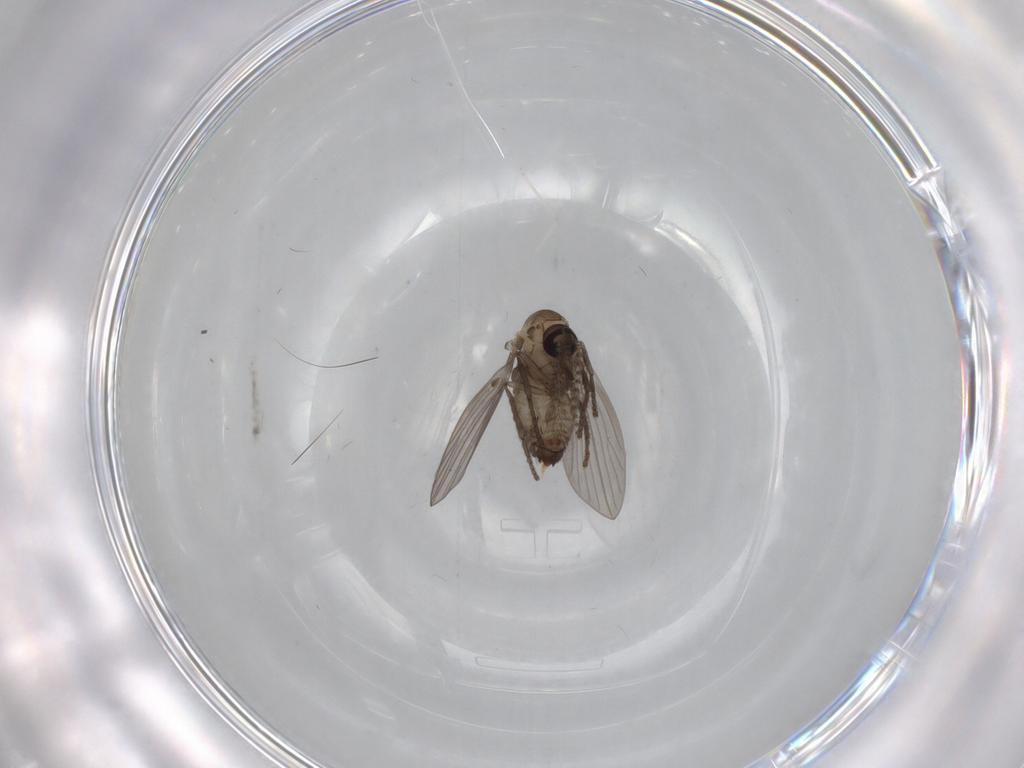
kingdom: Animalia
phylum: Arthropoda
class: Insecta
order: Diptera
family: Psychodidae
